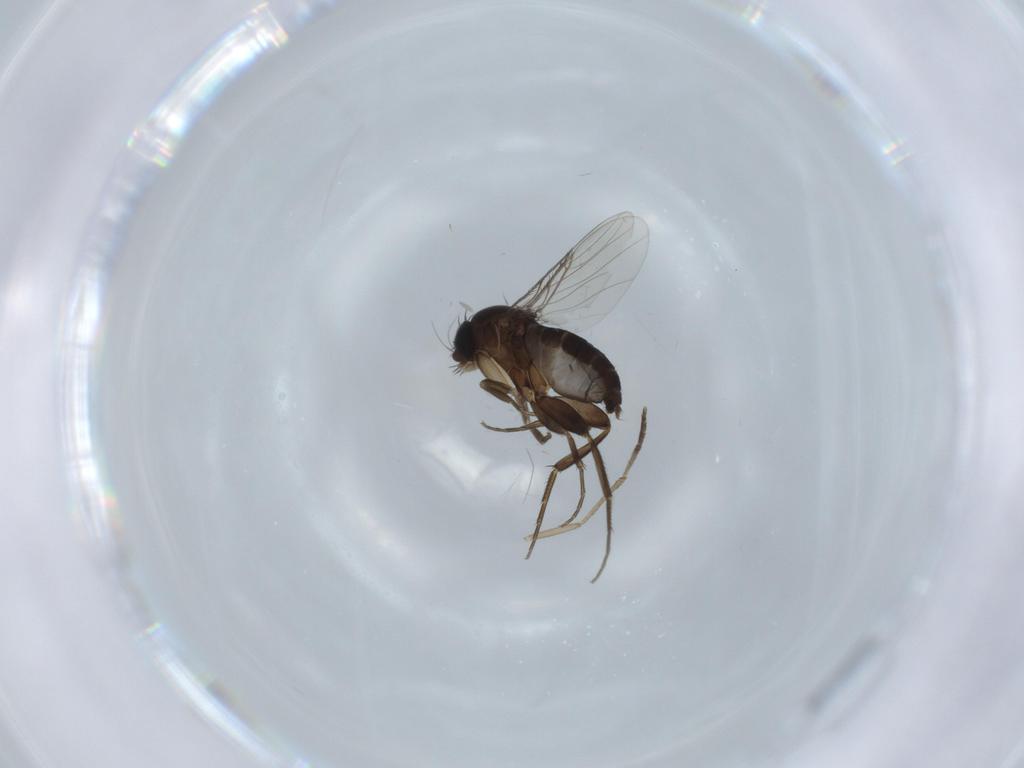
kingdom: Animalia
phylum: Arthropoda
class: Insecta
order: Diptera
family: Phoridae
